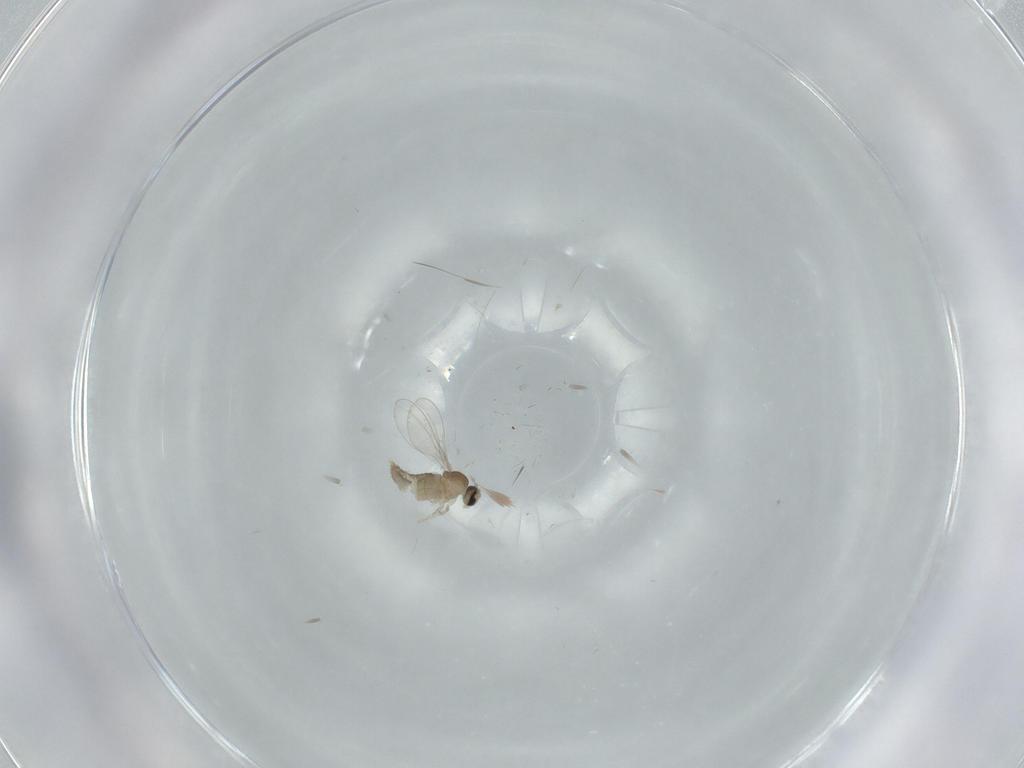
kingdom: Animalia
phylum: Arthropoda
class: Insecta
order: Diptera
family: Cecidomyiidae
